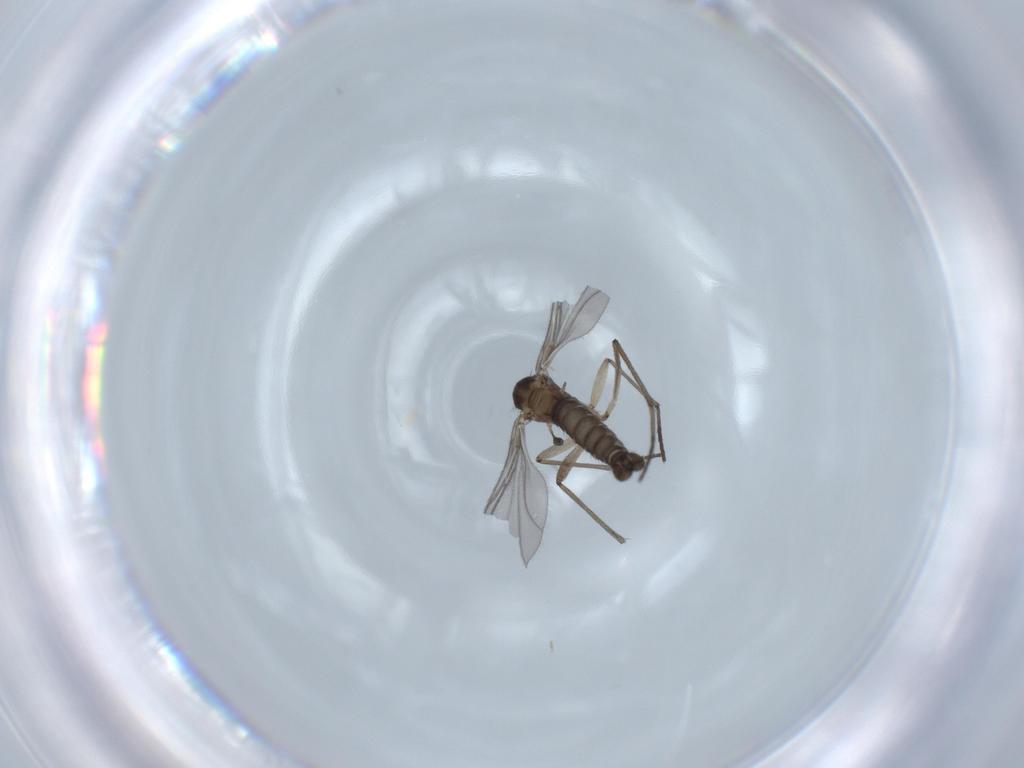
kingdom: Animalia
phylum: Arthropoda
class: Insecta
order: Diptera
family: Sciaridae
